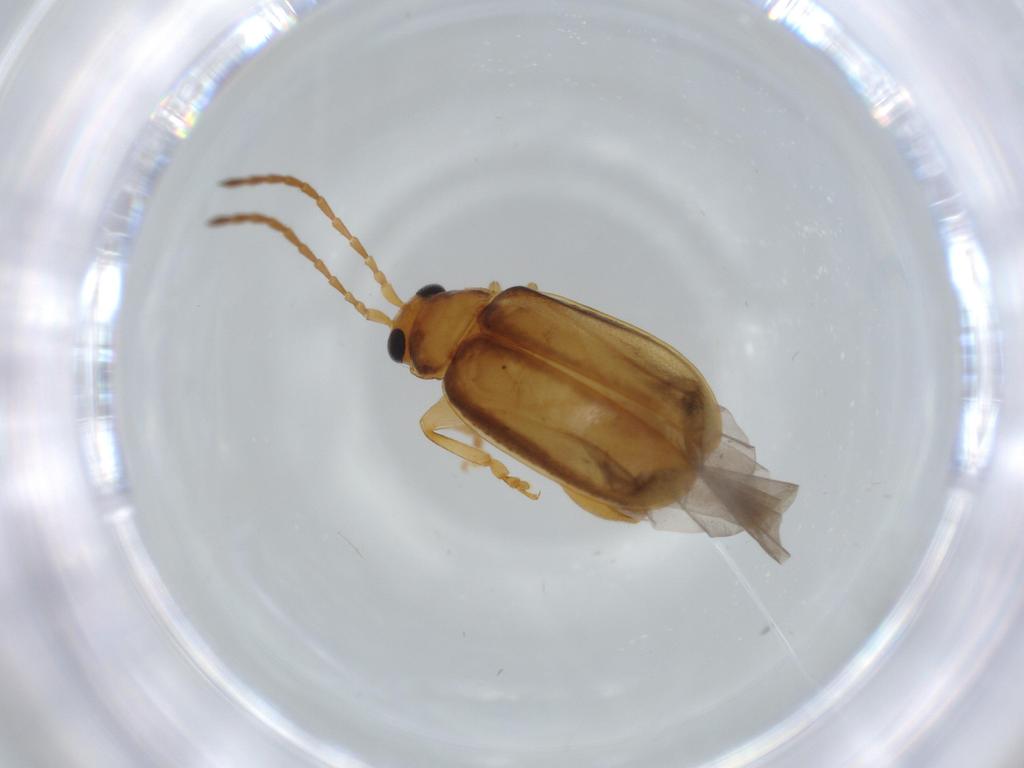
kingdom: Animalia
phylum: Arthropoda
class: Insecta
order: Coleoptera
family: Chrysomelidae
